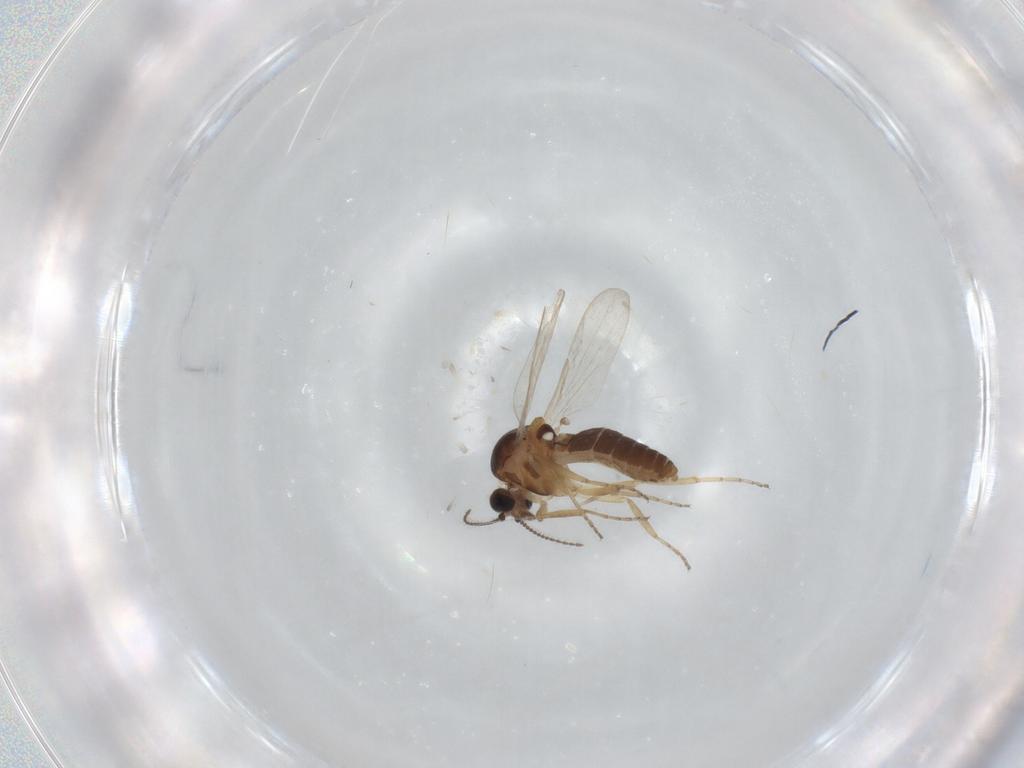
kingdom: Animalia
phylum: Arthropoda
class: Insecta
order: Diptera
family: Ceratopogonidae
